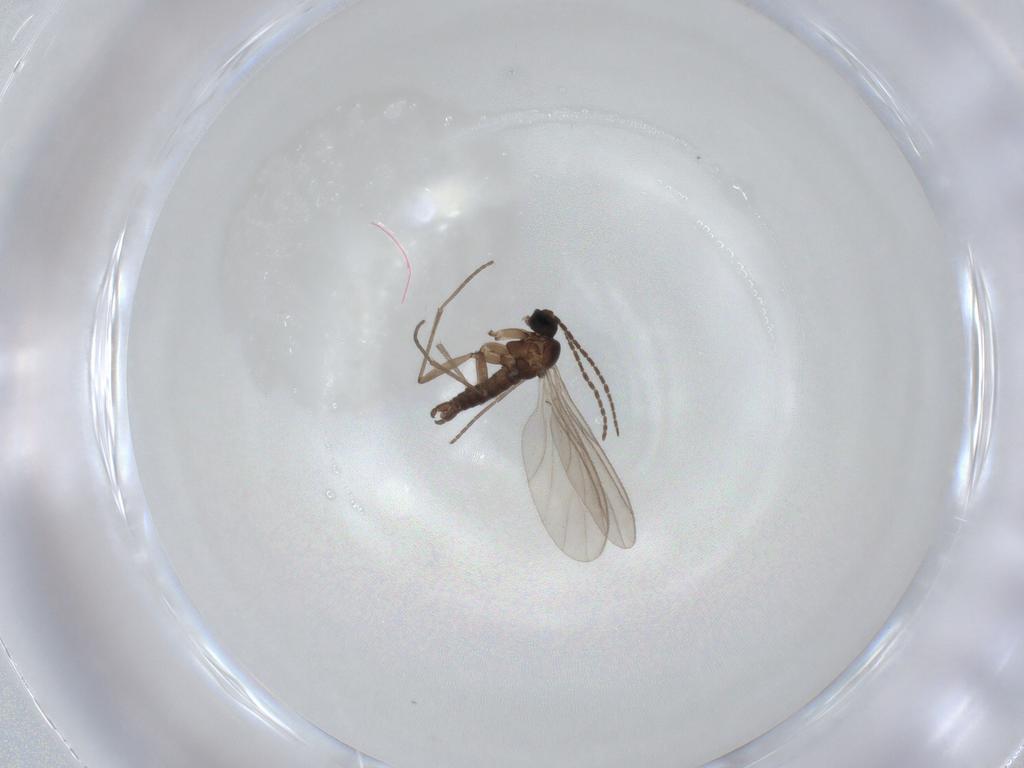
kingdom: Animalia
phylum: Arthropoda
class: Insecta
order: Diptera
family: Sciaridae
